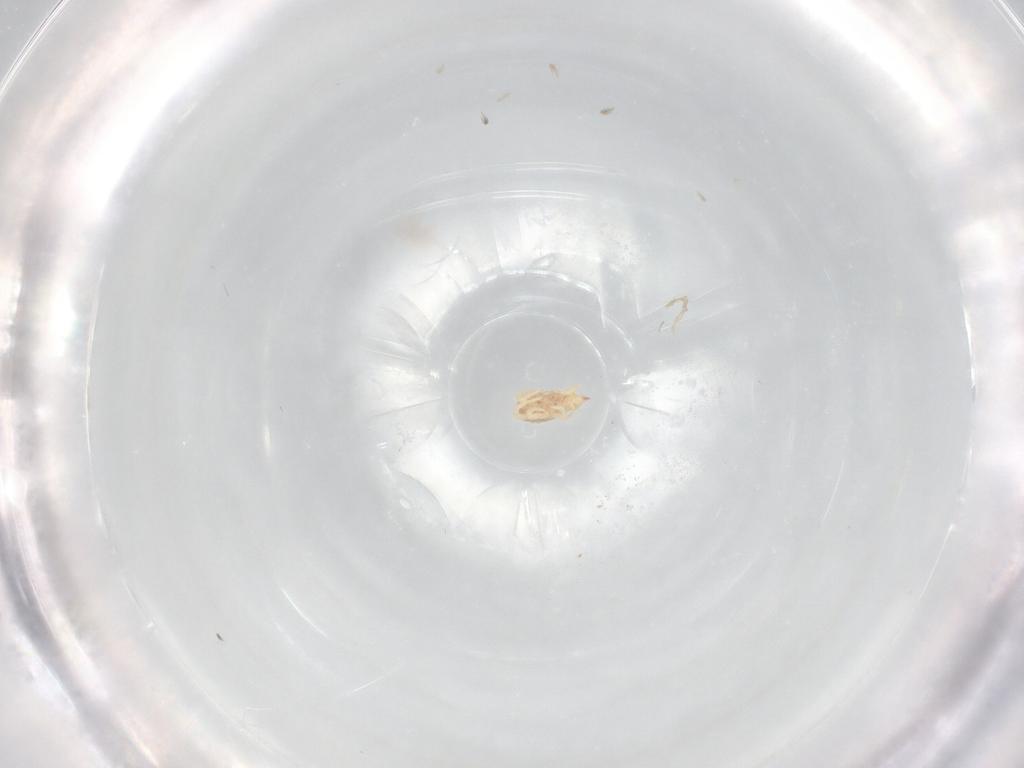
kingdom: Animalia
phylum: Arthropoda
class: Arachnida
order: Trombidiformes
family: Bdellidae
